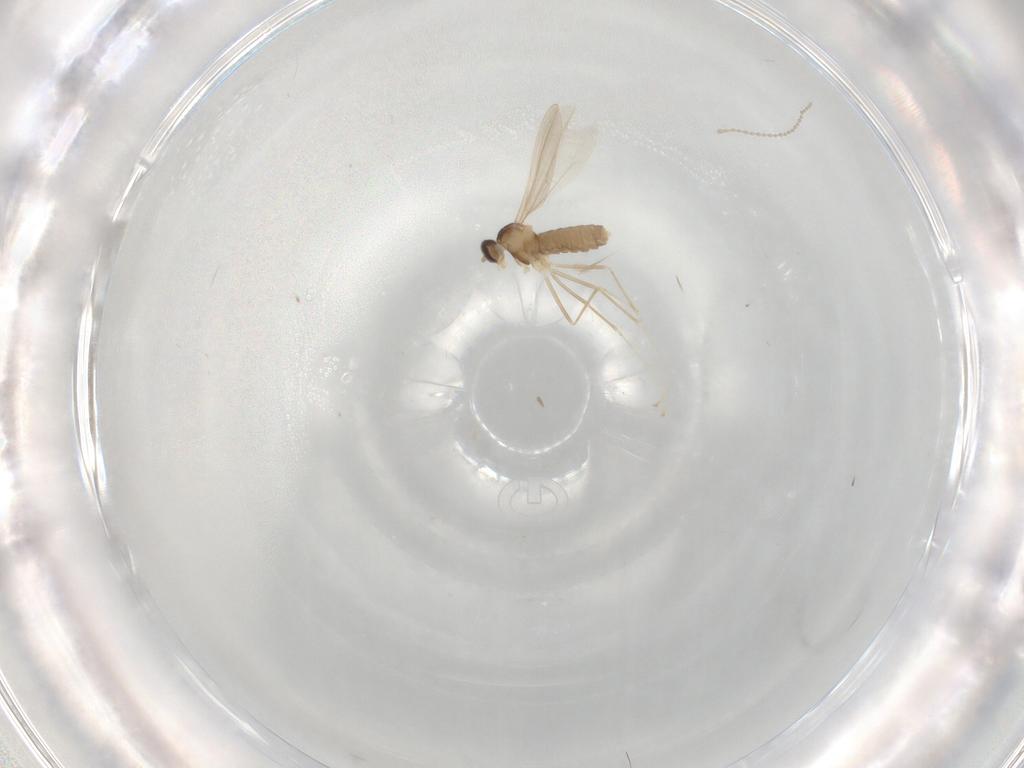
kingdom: Animalia
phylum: Arthropoda
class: Insecta
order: Diptera
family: Cecidomyiidae
